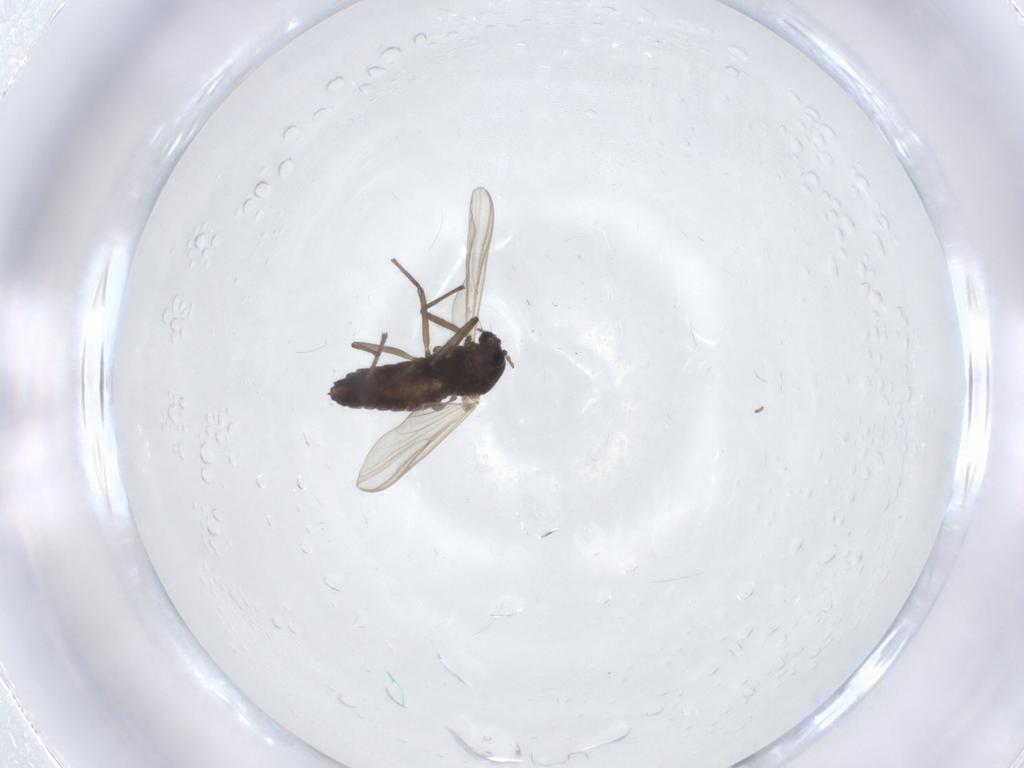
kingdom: Animalia
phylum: Arthropoda
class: Insecta
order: Diptera
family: Chironomidae
